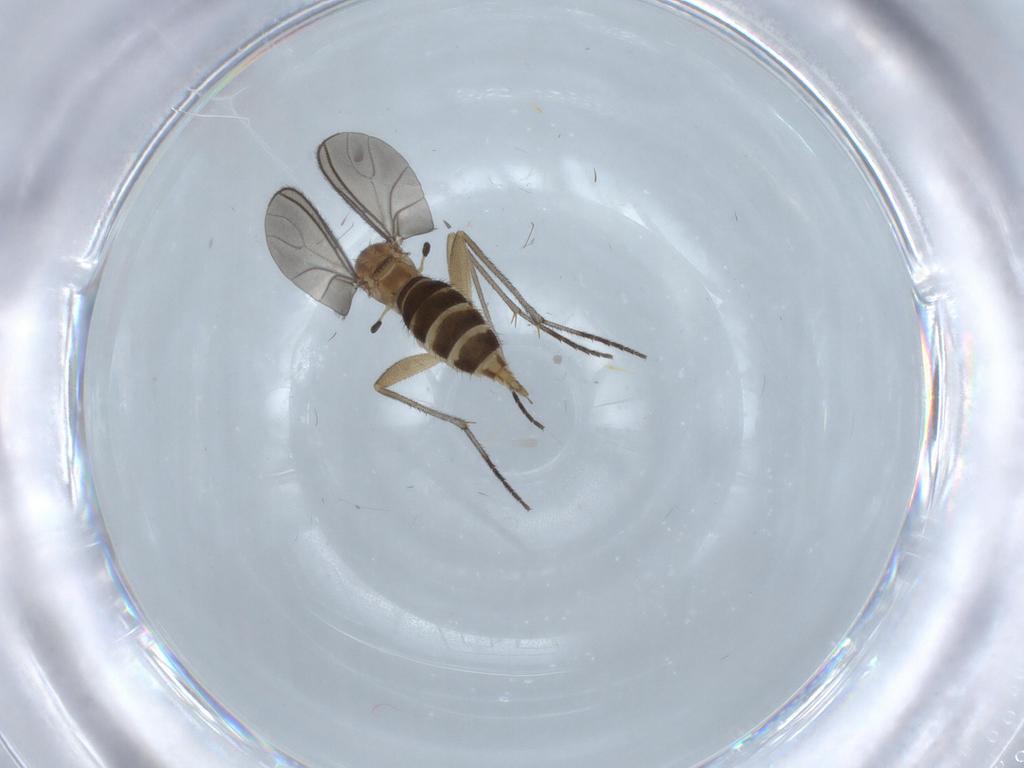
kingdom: Animalia
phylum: Arthropoda
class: Insecta
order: Diptera
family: Sciaridae
